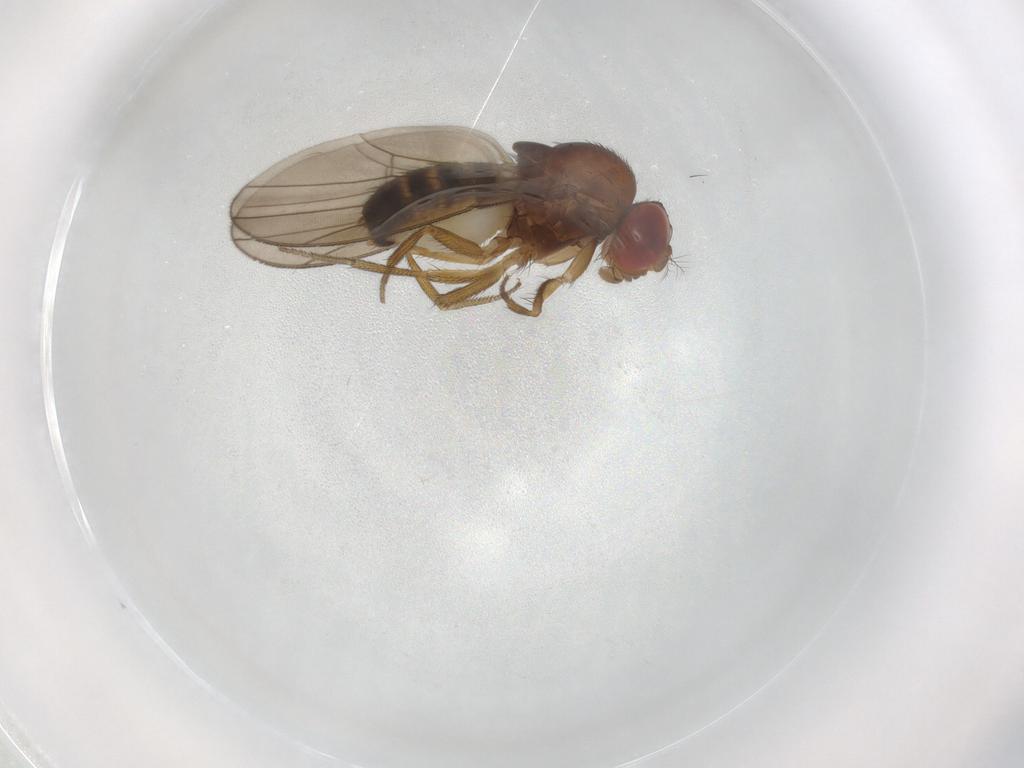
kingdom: Animalia
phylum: Arthropoda
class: Insecta
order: Diptera
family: Drosophilidae
